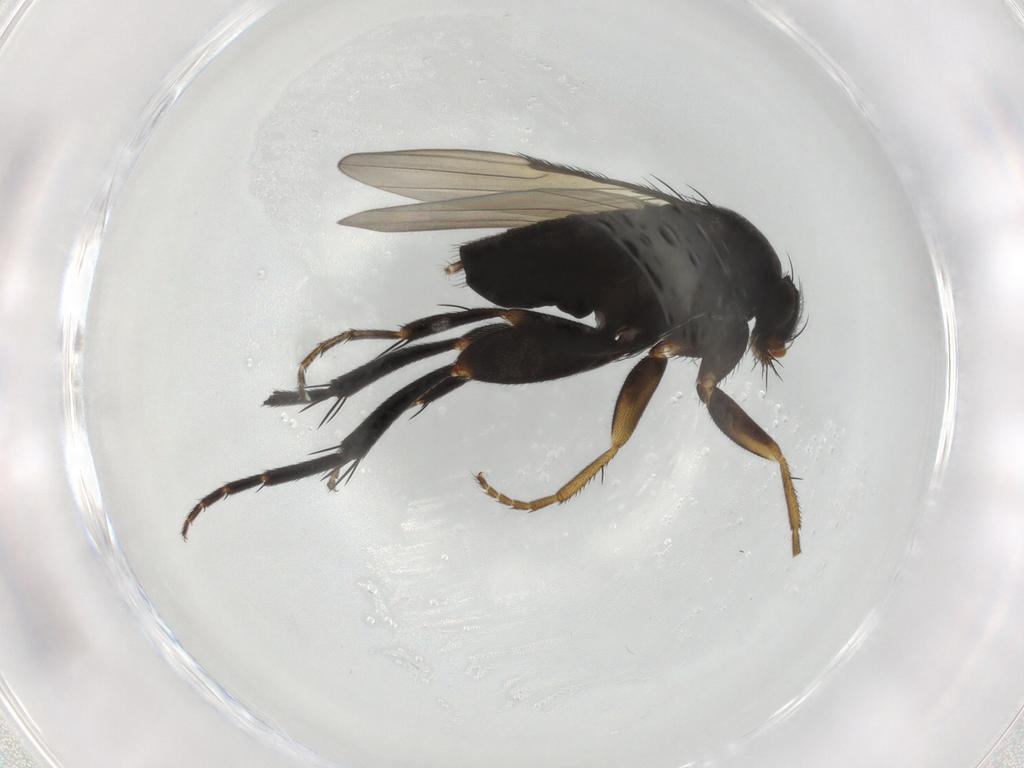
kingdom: Animalia
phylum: Arthropoda
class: Insecta
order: Diptera
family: Phoridae
